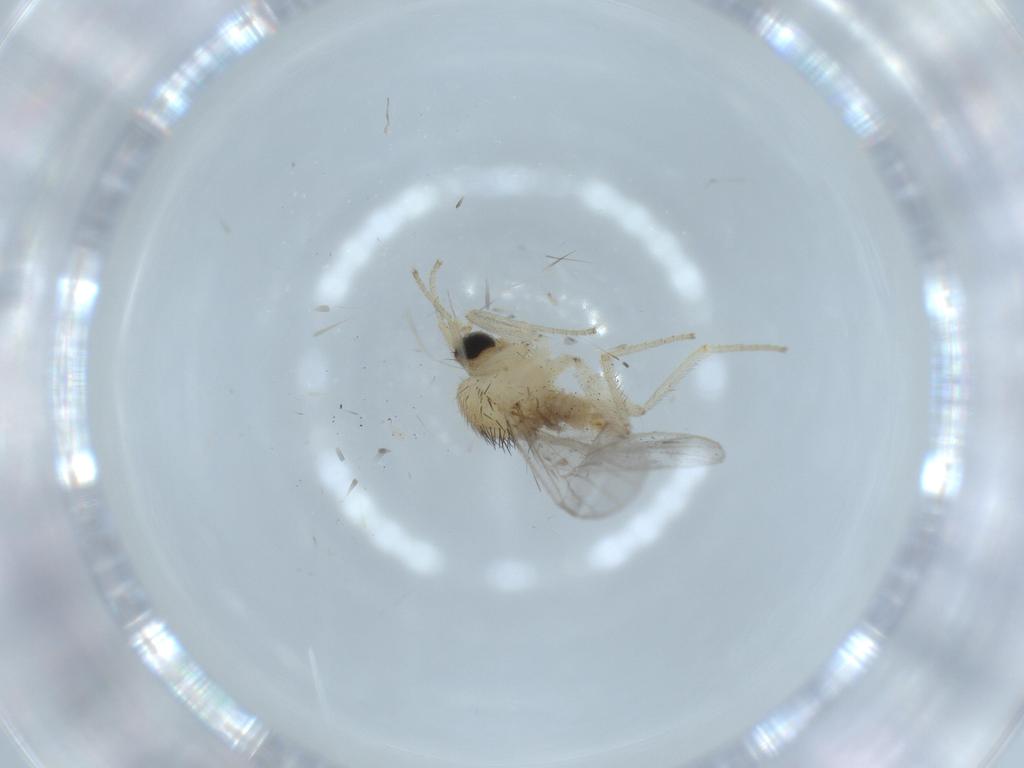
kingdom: Animalia
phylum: Arthropoda
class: Insecta
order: Diptera
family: Hybotidae
